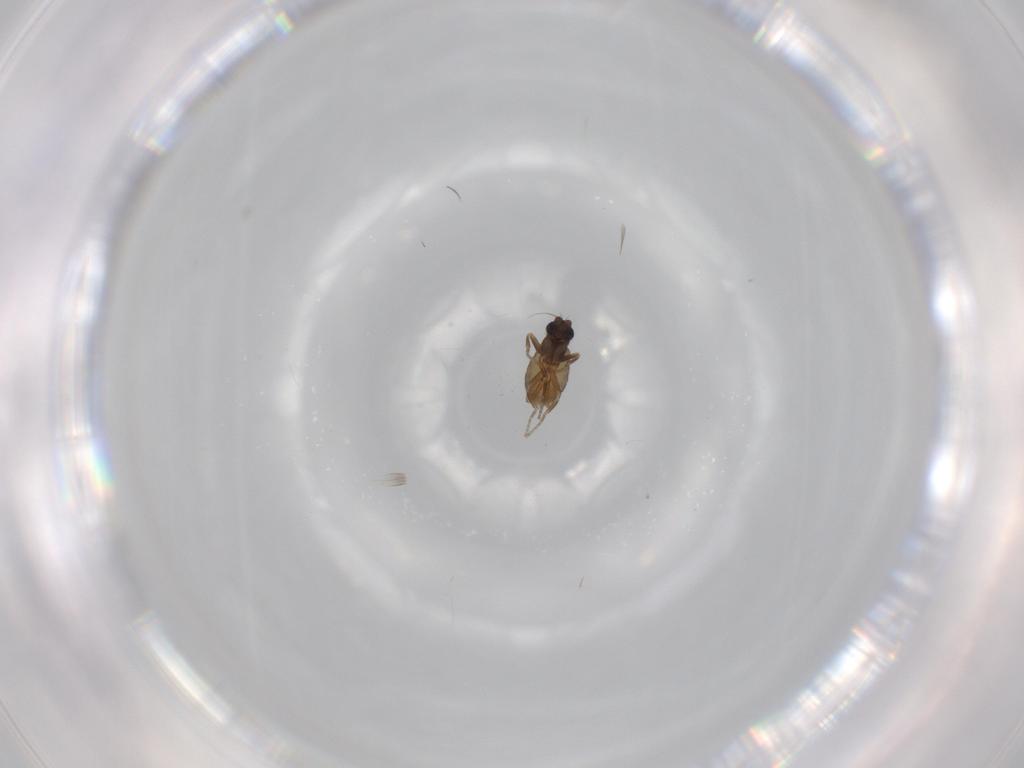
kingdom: Animalia
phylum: Arthropoda
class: Insecta
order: Diptera
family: Phoridae
